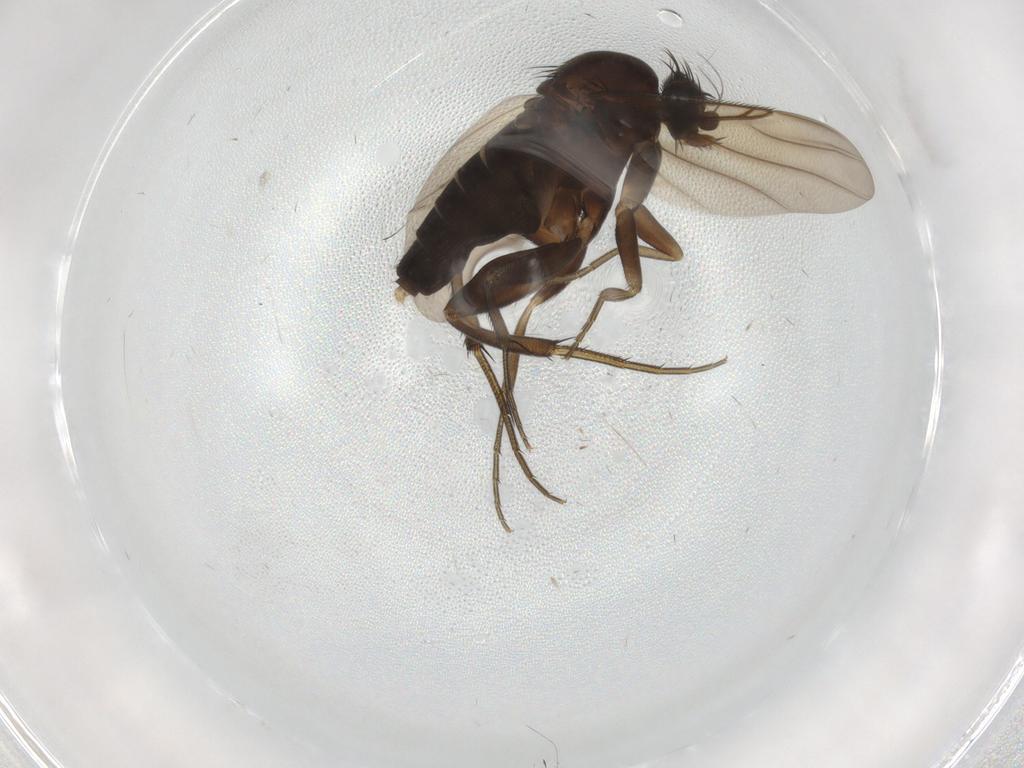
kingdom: Animalia
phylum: Arthropoda
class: Insecta
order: Diptera
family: Phoridae
